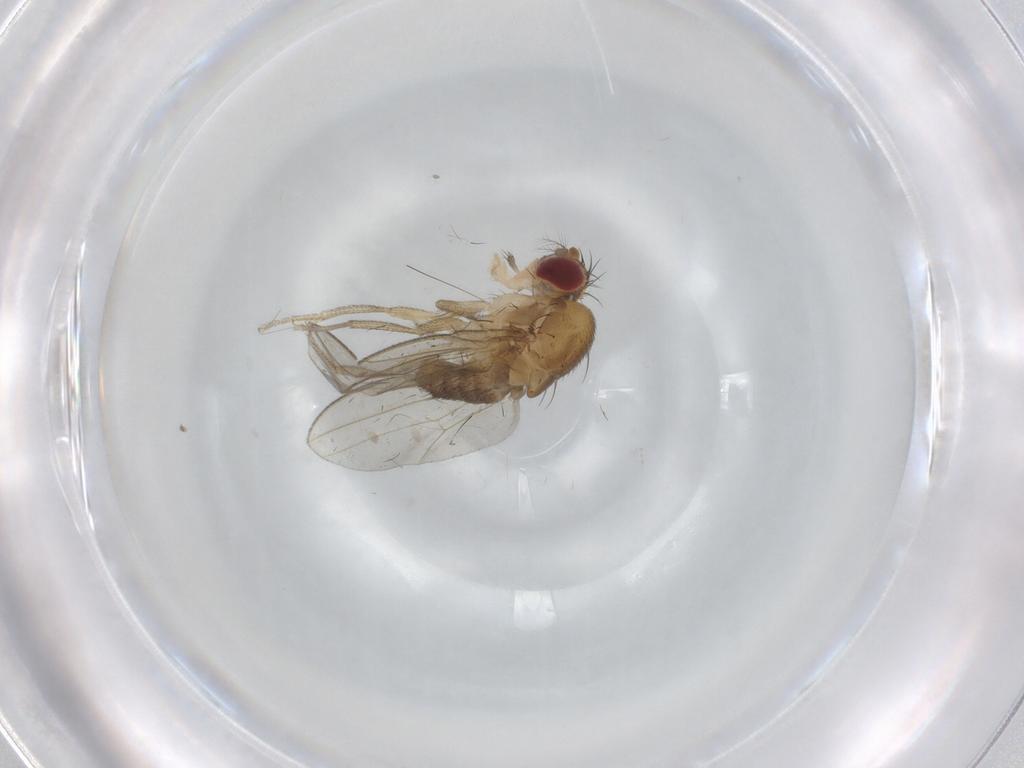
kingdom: Animalia
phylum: Arthropoda
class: Insecta
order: Diptera
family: Drosophilidae
